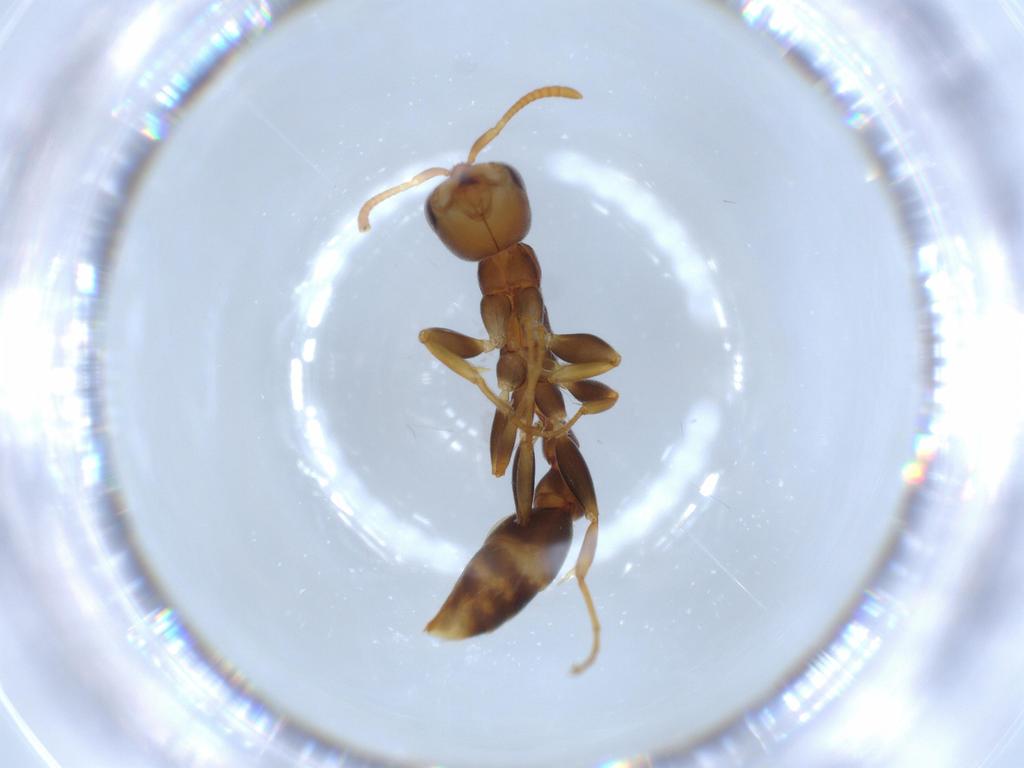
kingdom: Animalia
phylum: Arthropoda
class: Insecta
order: Hymenoptera
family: Formicidae
